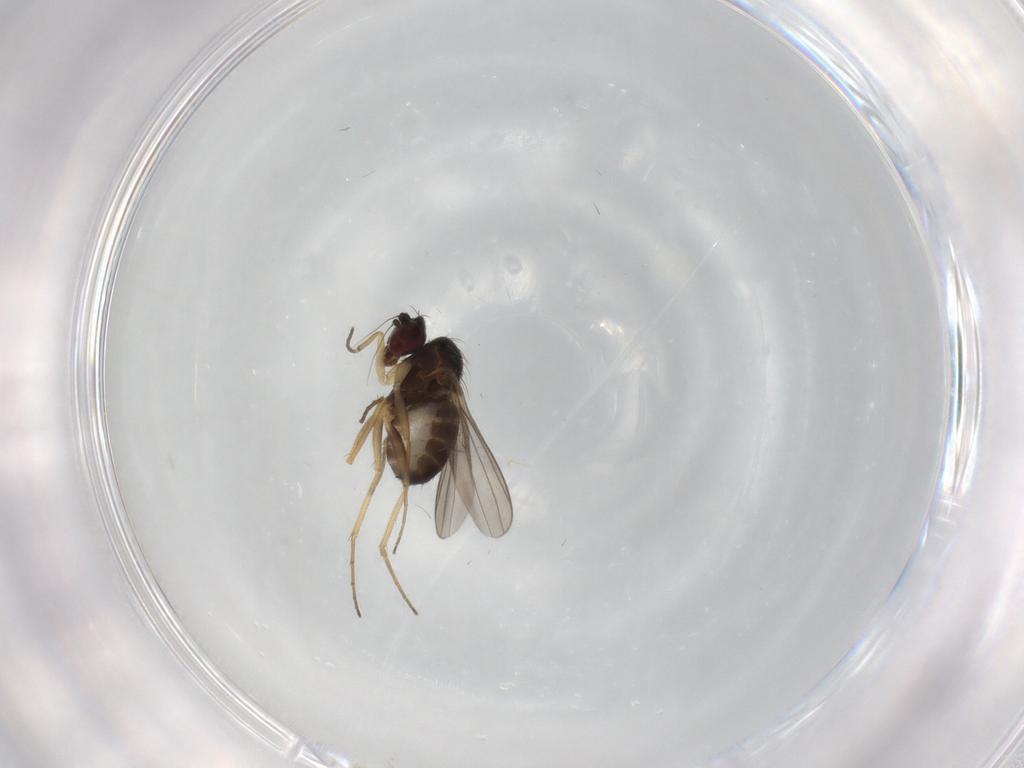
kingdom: Animalia
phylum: Arthropoda
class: Insecta
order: Diptera
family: Dolichopodidae
